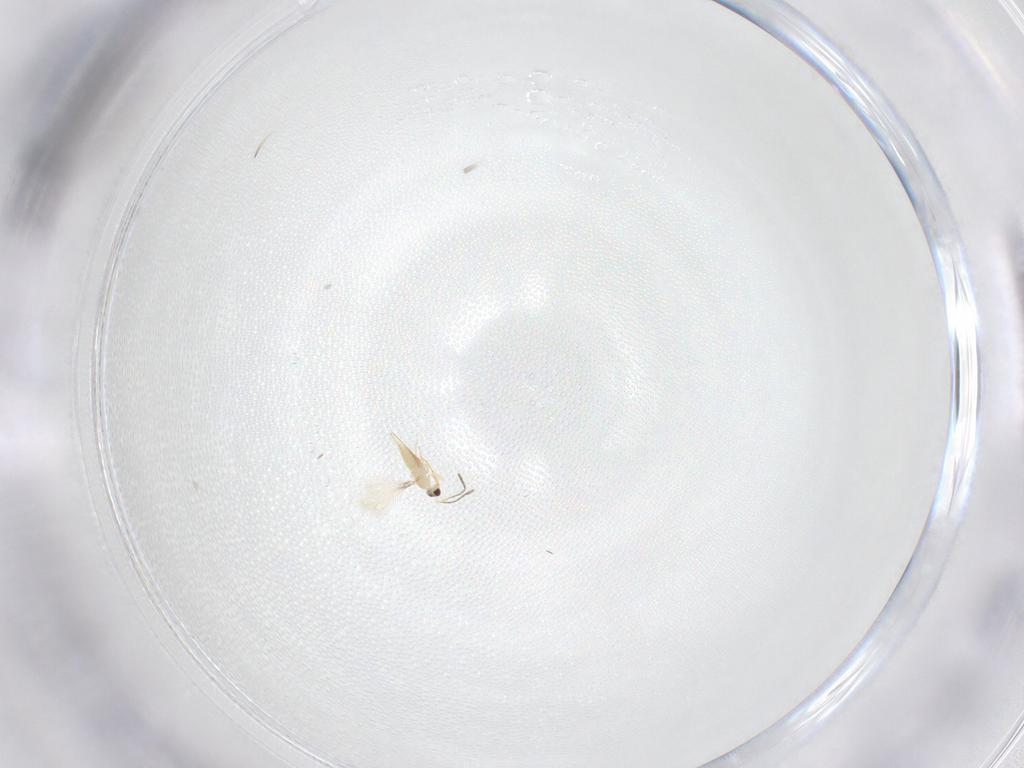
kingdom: Animalia
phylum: Arthropoda
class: Insecta
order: Hymenoptera
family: Mymaridae
